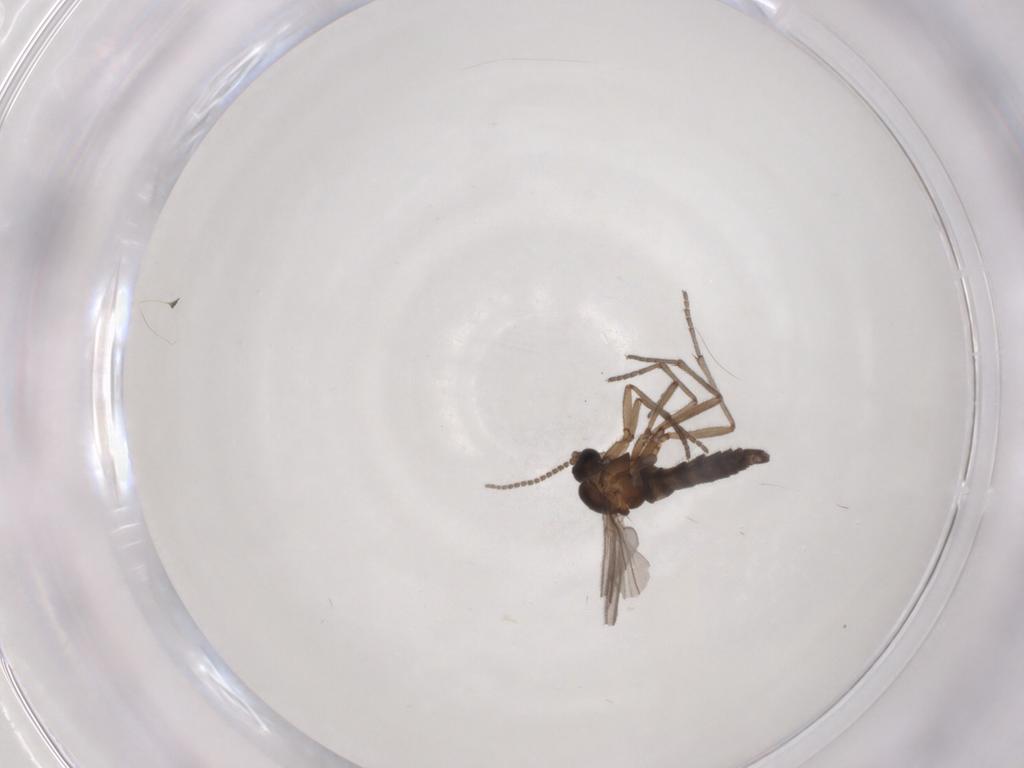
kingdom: Animalia
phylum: Arthropoda
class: Insecta
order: Diptera
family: Sciaridae
